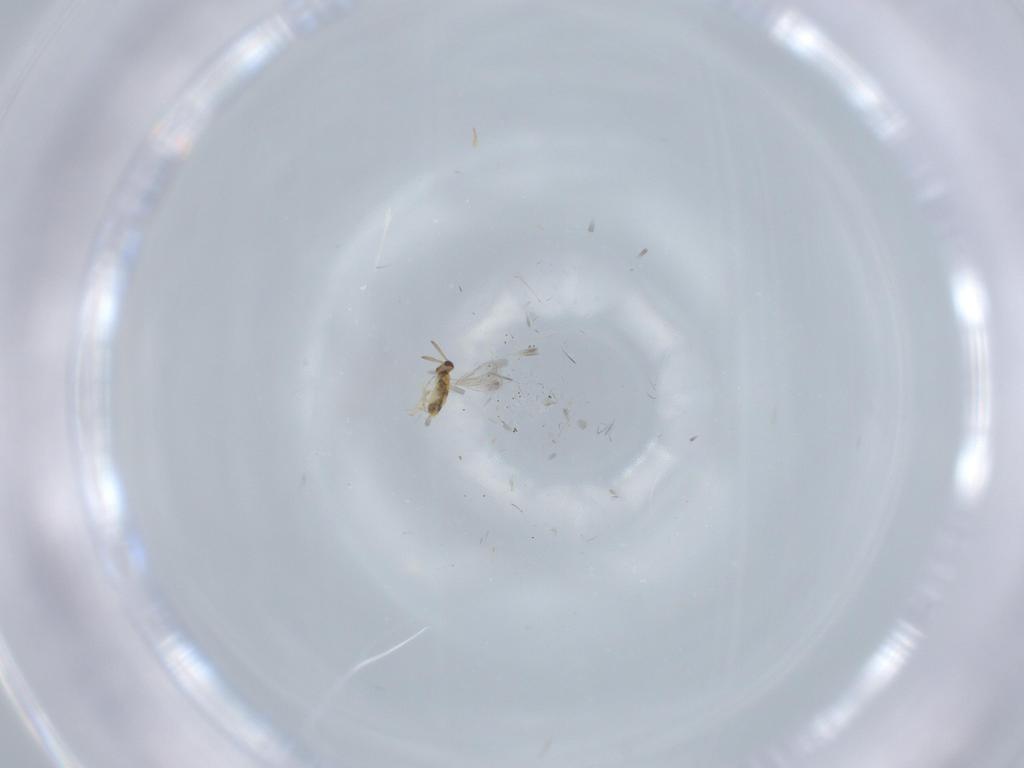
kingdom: Animalia
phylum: Arthropoda
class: Insecta
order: Hymenoptera
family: Aphelinidae
